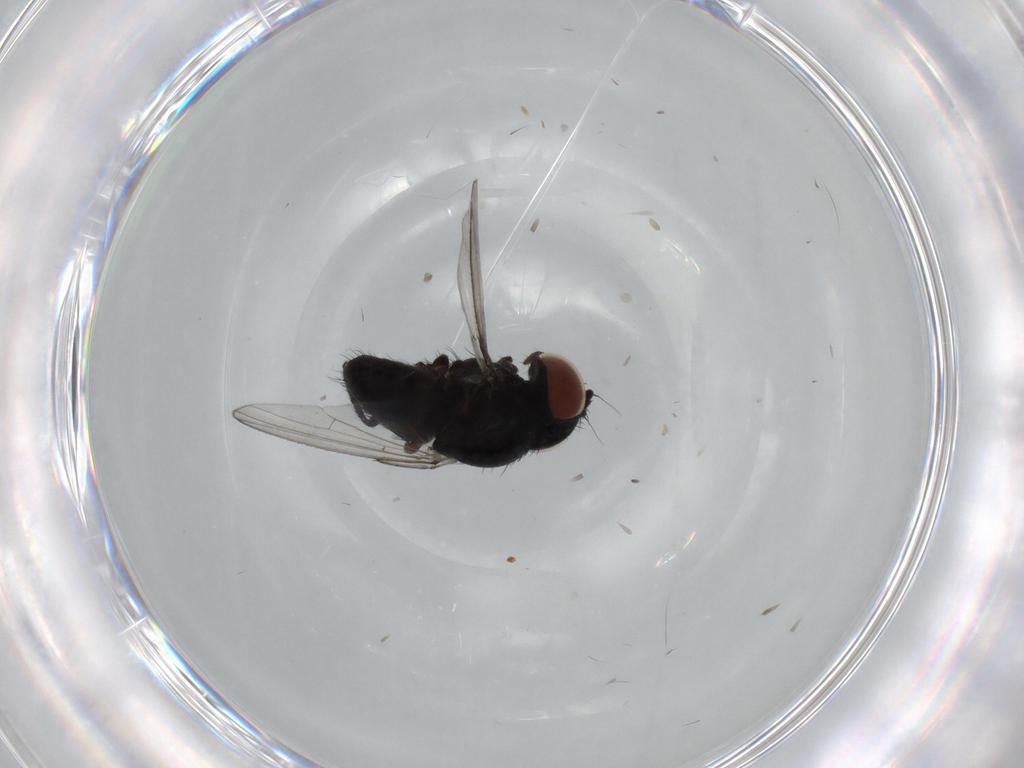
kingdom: Animalia
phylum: Arthropoda
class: Insecta
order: Diptera
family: Milichiidae
